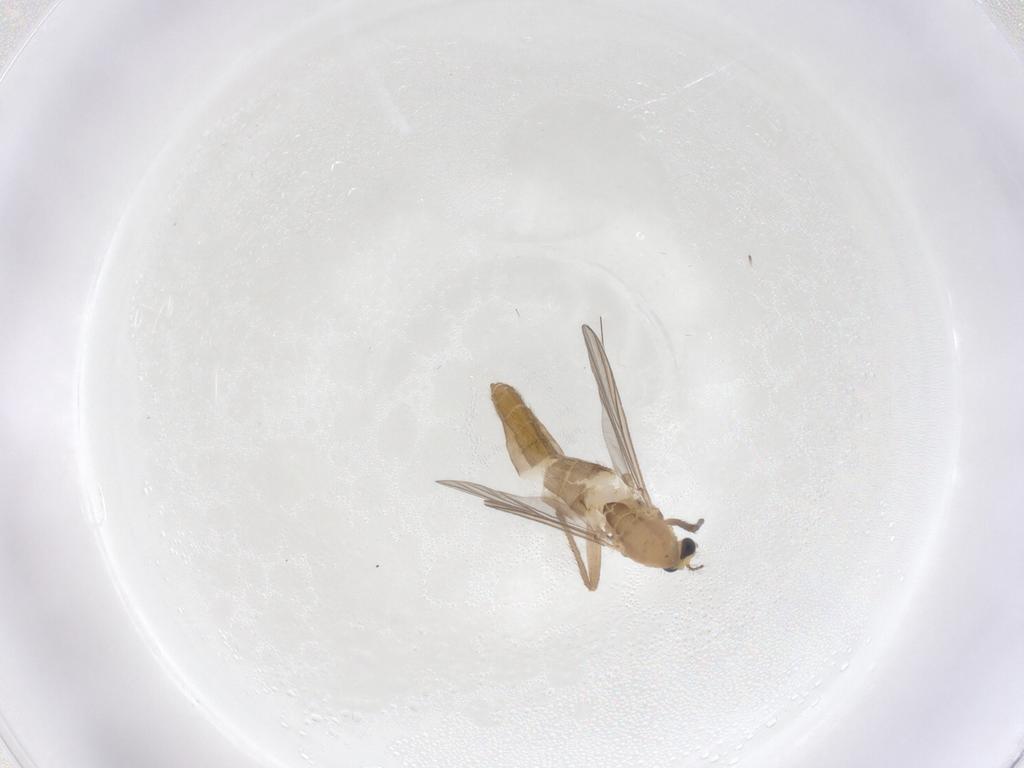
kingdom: Animalia
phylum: Arthropoda
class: Insecta
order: Diptera
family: Chironomidae
